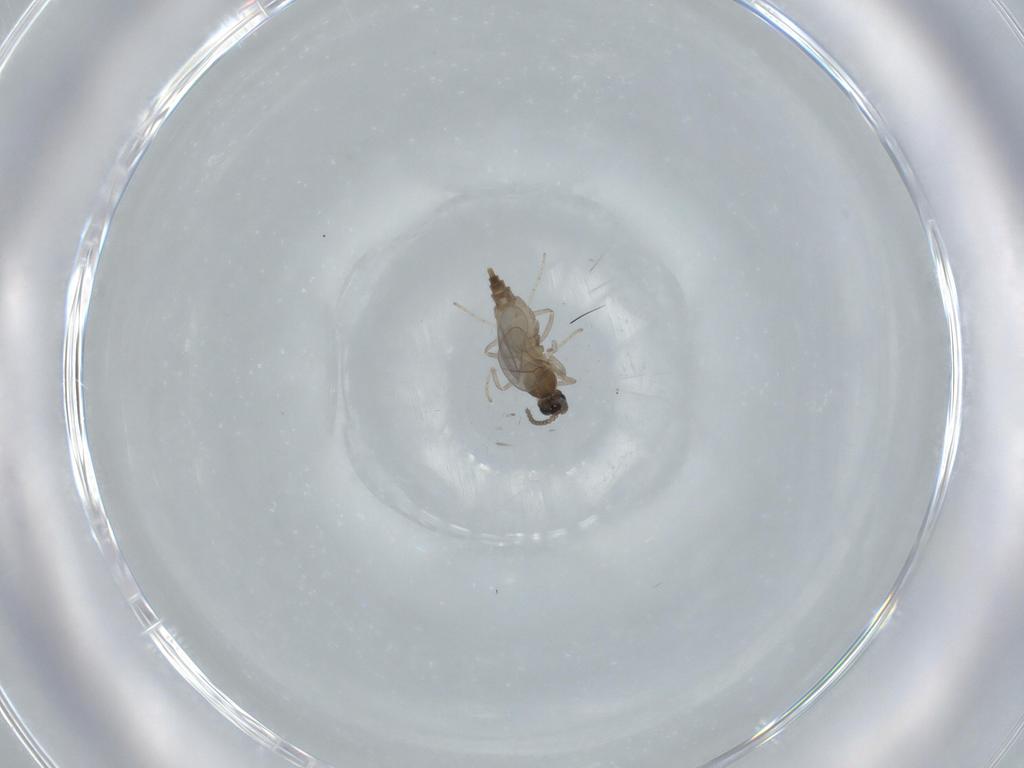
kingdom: Animalia
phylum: Arthropoda
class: Insecta
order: Diptera
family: Cecidomyiidae
